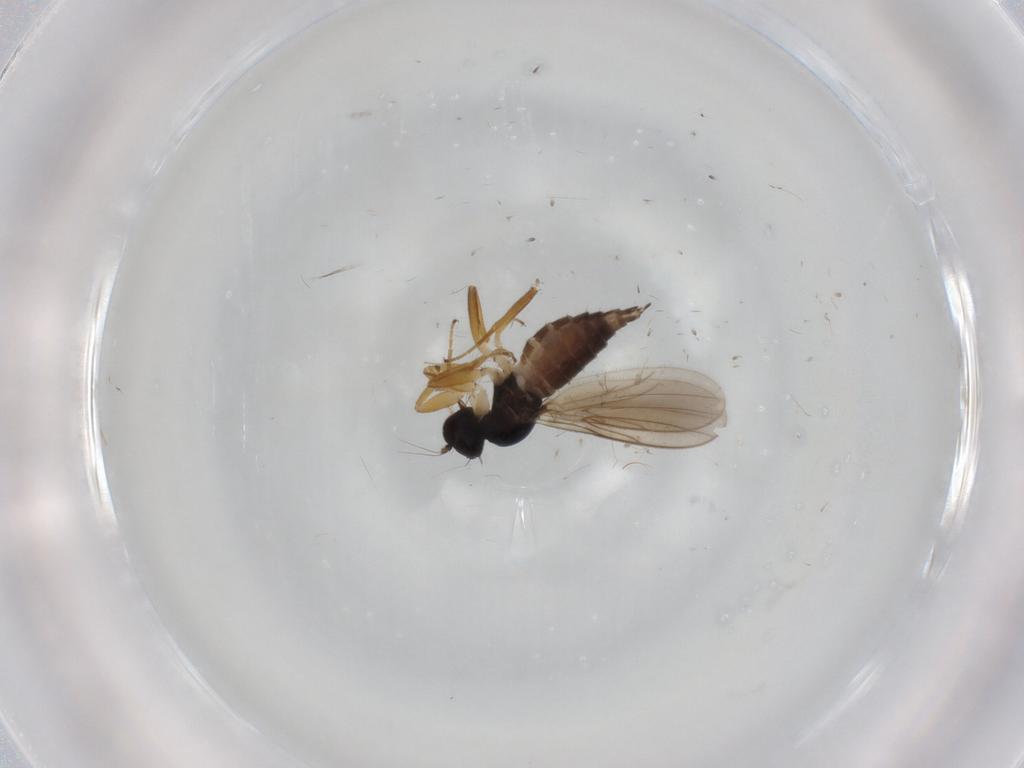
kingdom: Animalia
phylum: Arthropoda
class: Insecta
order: Diptera
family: Hybotidae
